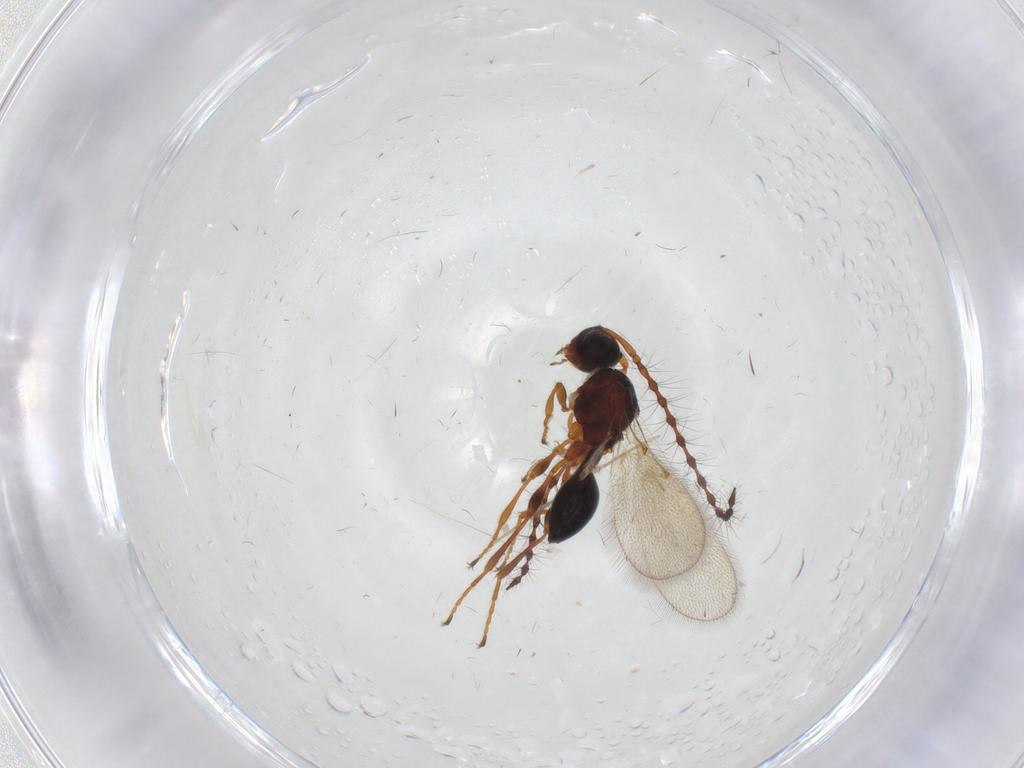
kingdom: Animalia
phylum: Arthropoda
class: Insecta
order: Hymenoptera
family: Diapriidae
